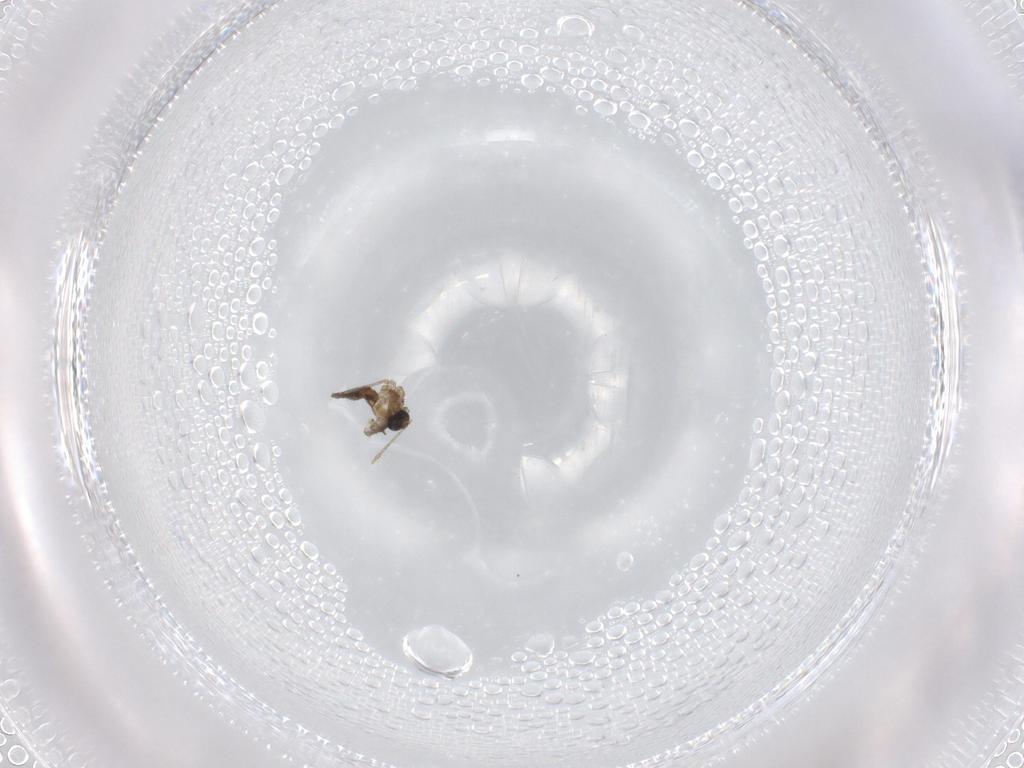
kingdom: Animalia
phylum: Arthropoda
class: Insecta
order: Diptera
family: Cecidomyiidae
